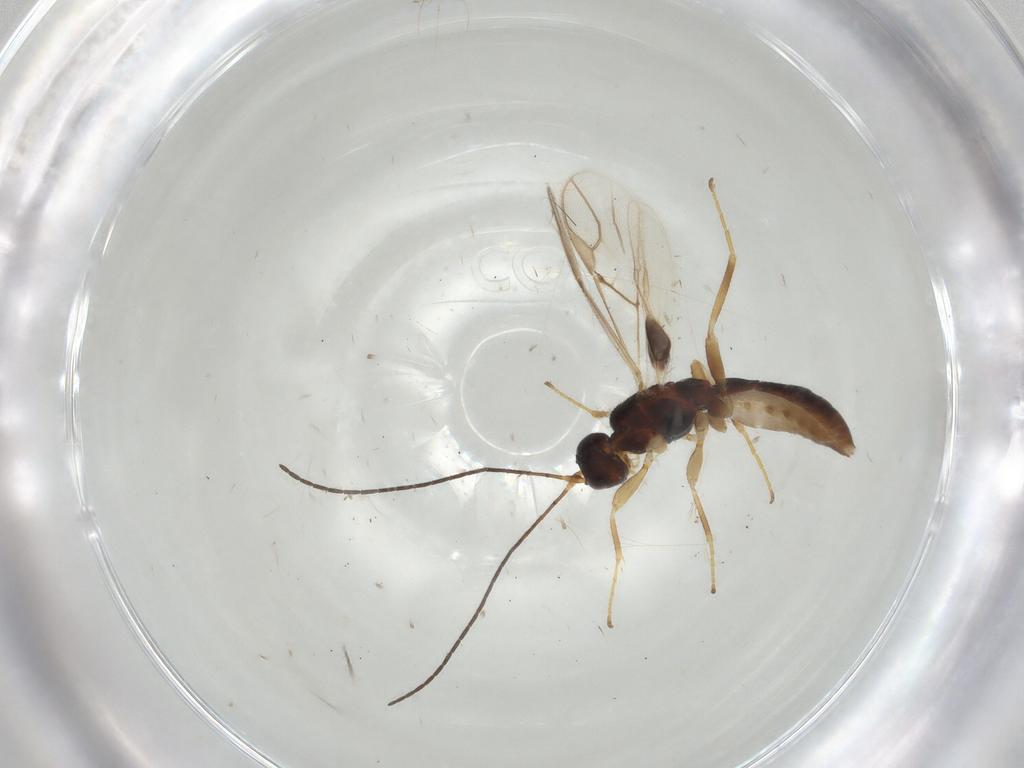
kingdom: Animalia
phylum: Arthropoda
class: Insecta
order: Hymenoptera
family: Braconidae
